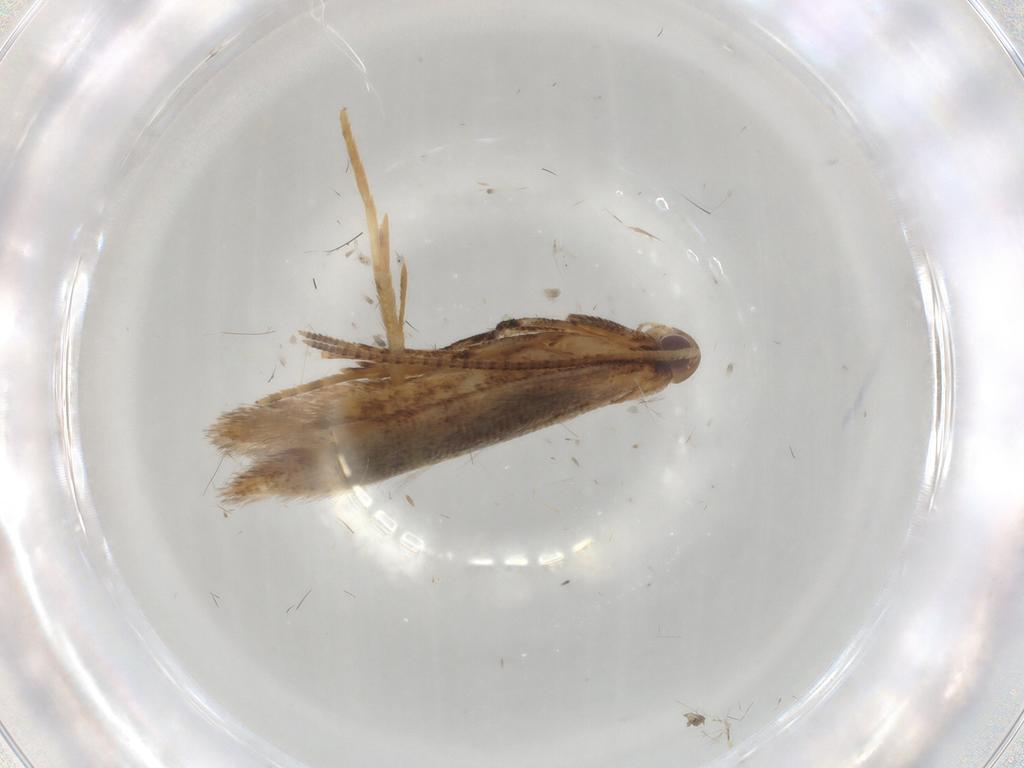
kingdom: Animalia
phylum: Arthropoda
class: Insecta
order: Lepidoptera
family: Gelechiidae
